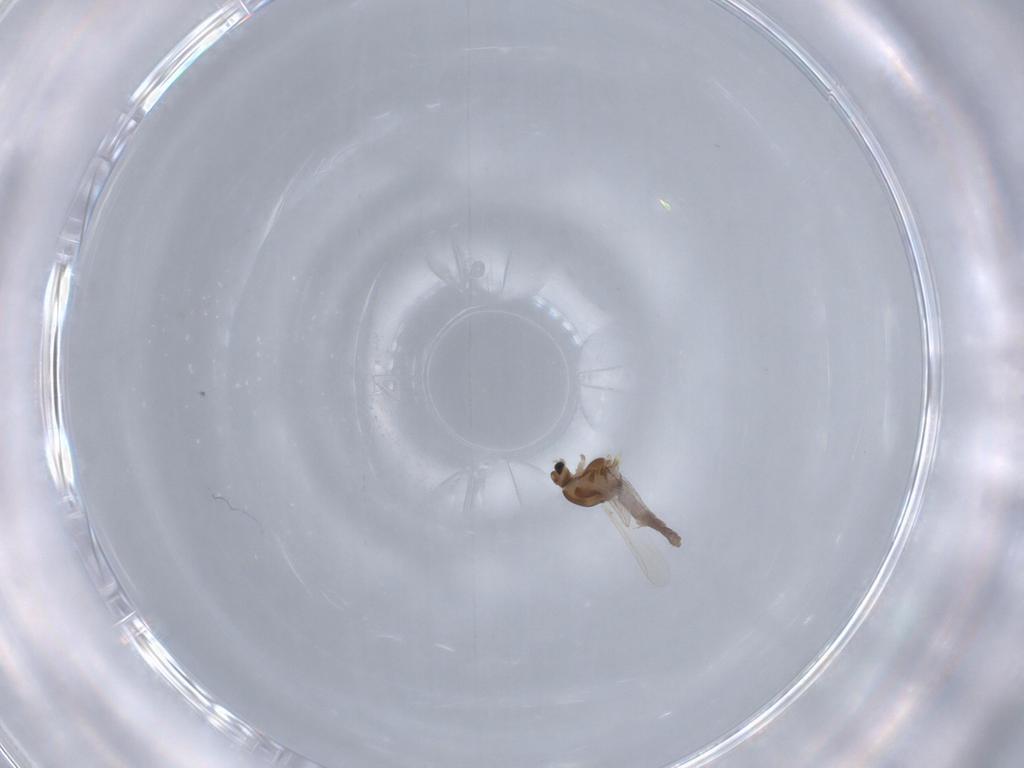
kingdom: Animalia
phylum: Arthropoda
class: Insecta
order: Diptera
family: Chironomidae
